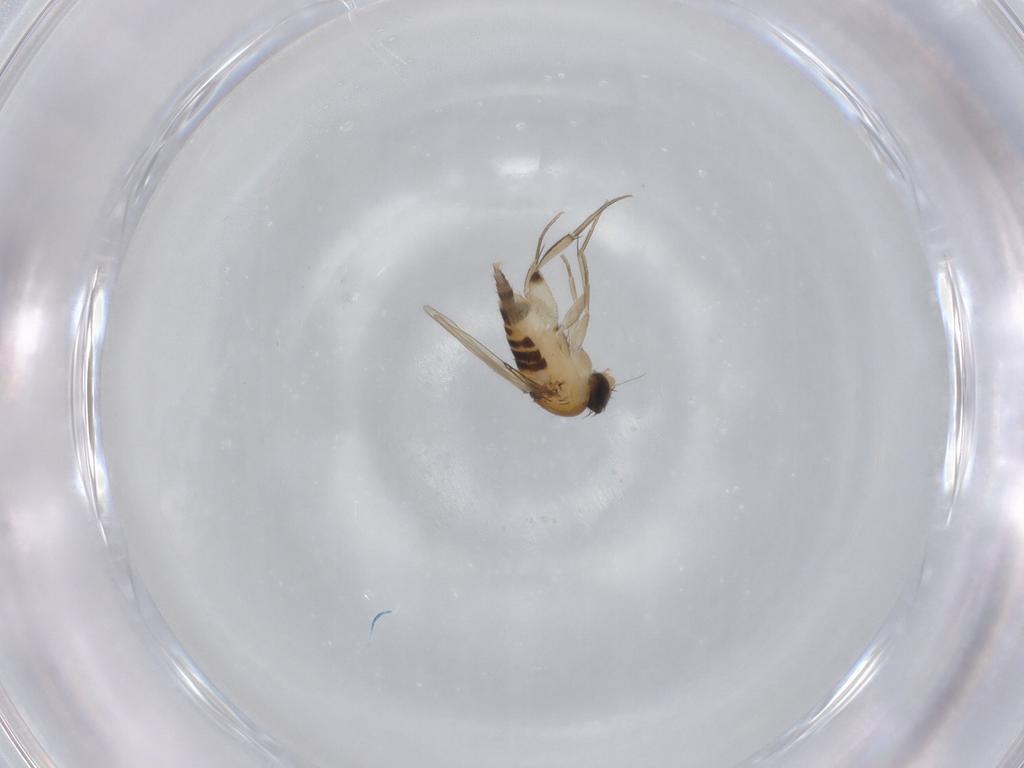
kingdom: Animalia
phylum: Arthropoda
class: Insecta
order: Diptera
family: Phoridae
